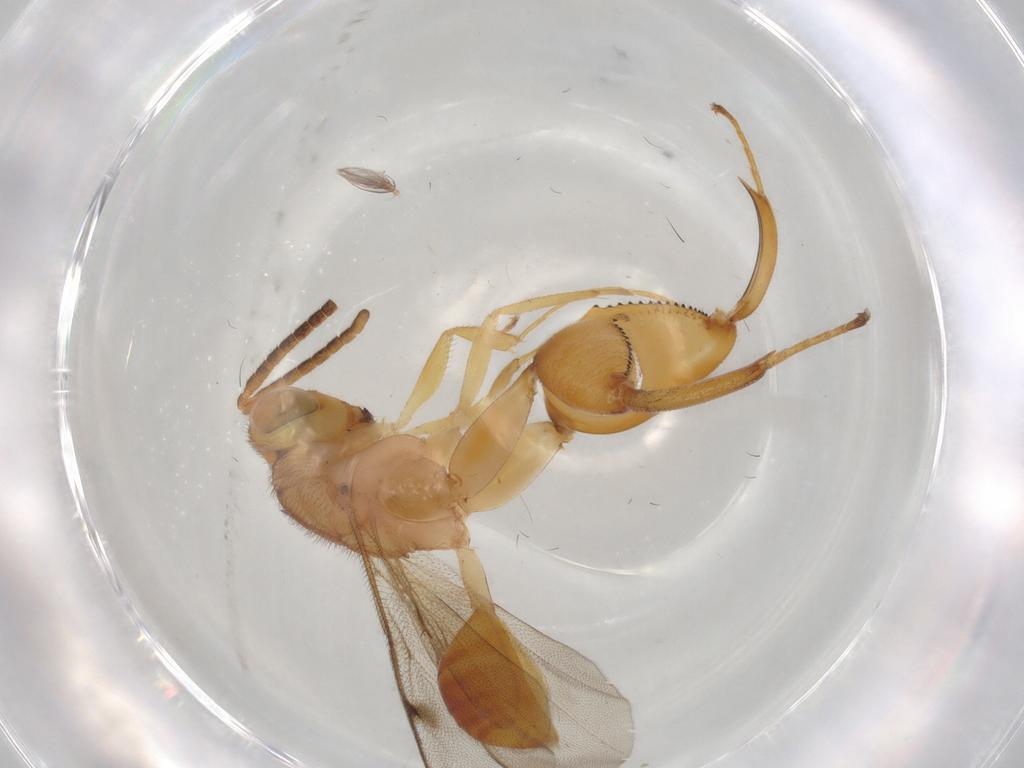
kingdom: Animalia
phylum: Arthropoda
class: Insecta
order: Hymenoptera
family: Chalcididae
